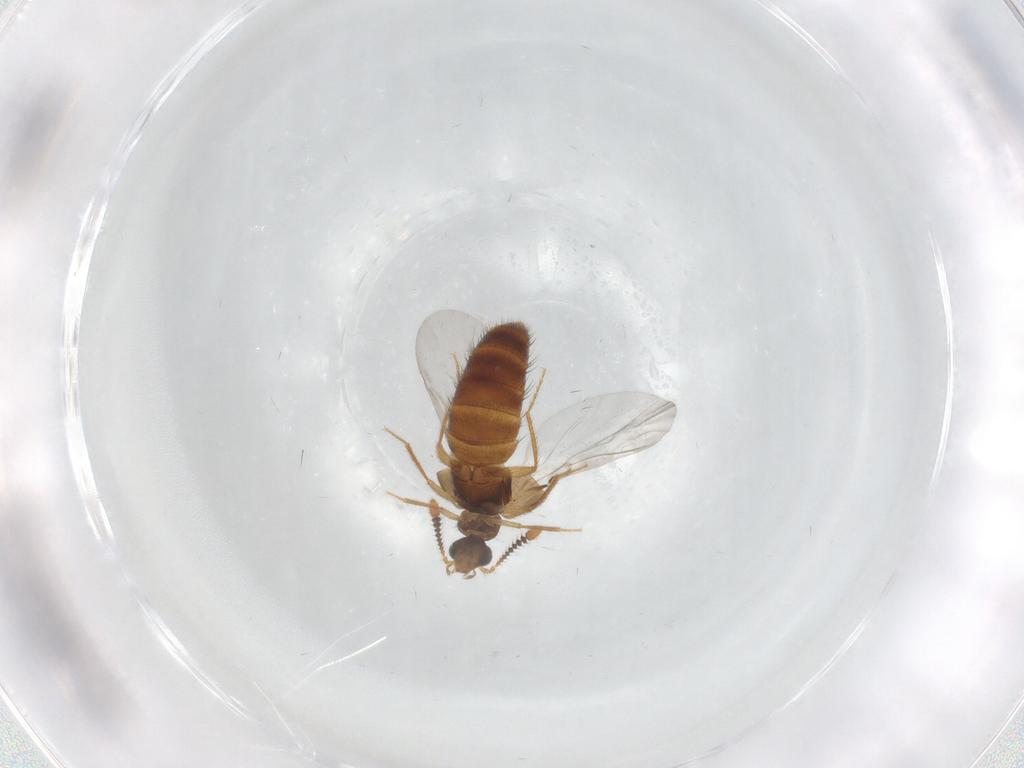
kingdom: Animalia
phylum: Arthropoda
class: Insecta
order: Coleoptera
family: Staphylinidae
